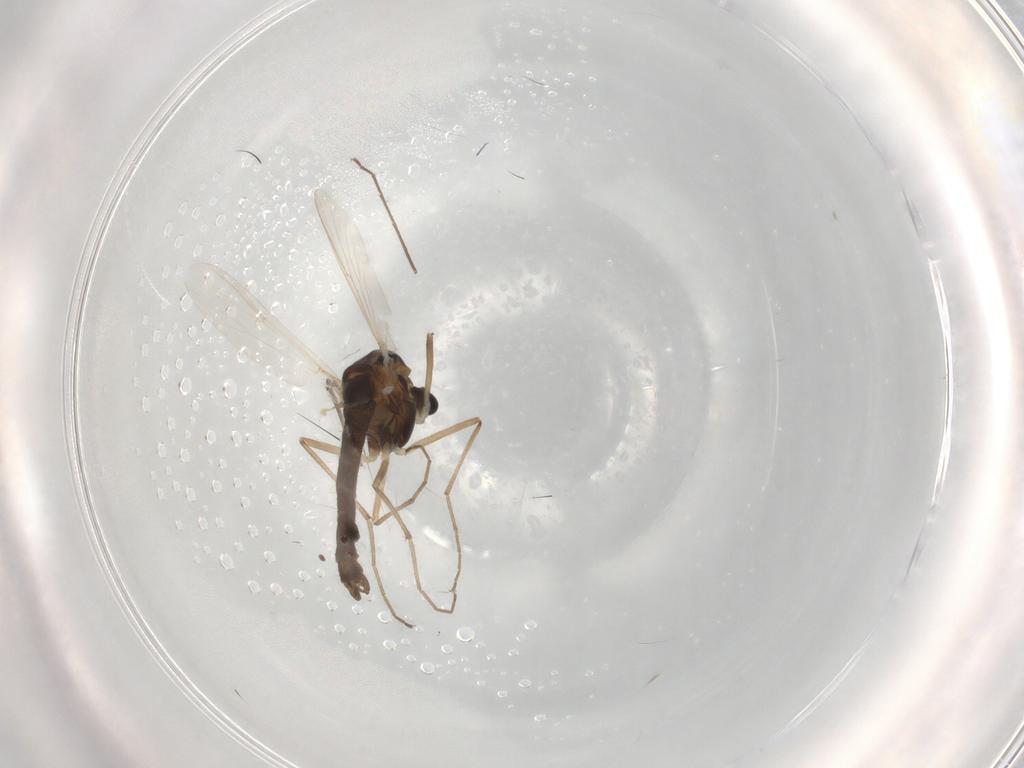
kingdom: Animalia
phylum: Arthropoda
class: Insecta
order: Diptera
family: Chironomidae
